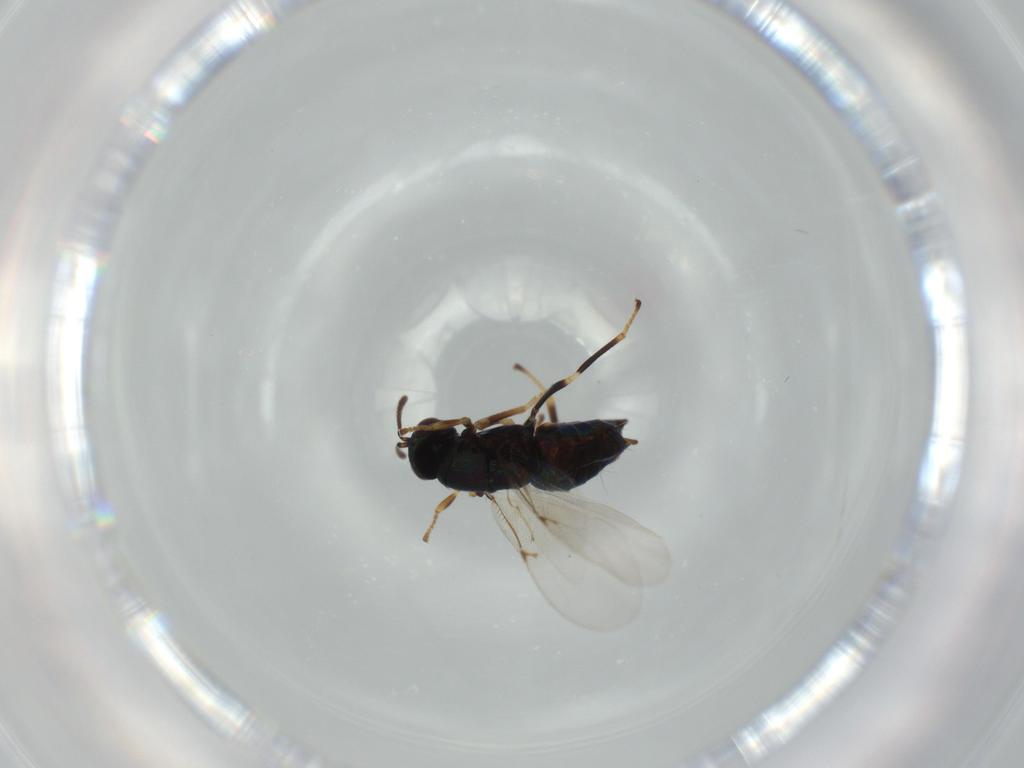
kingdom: Animalia
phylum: Arthropoda
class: Insecta
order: Hymenoptera
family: Encyrtidae
